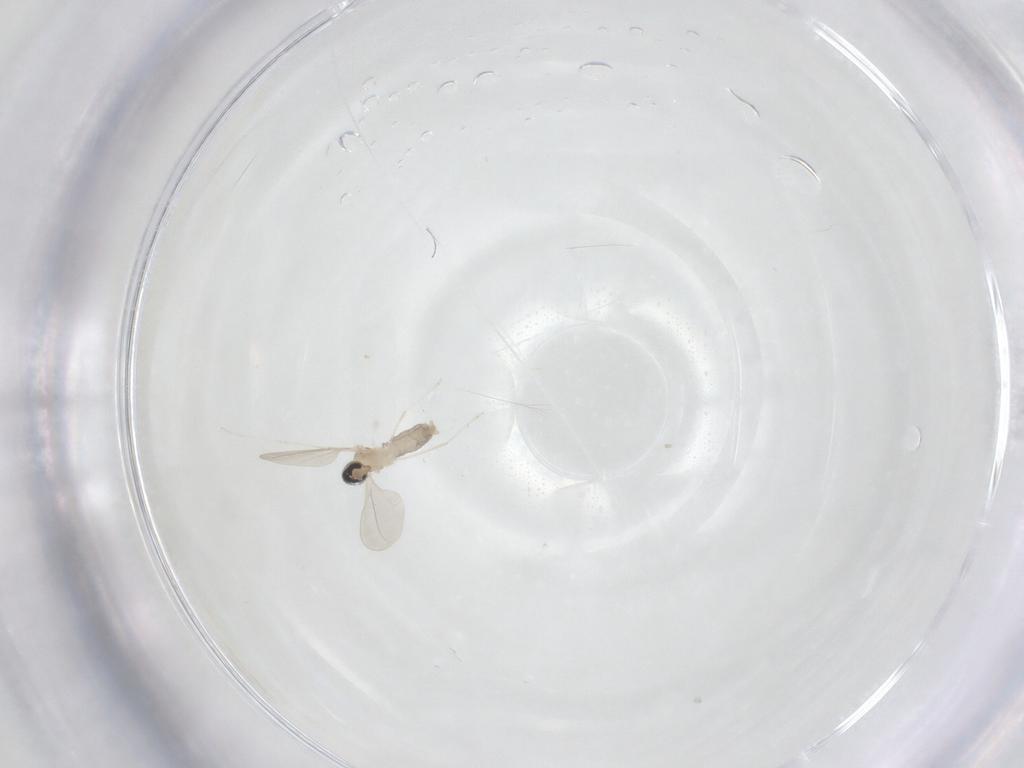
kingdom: Animalia
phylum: Arthropoda
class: Insecta
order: Diptera
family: Cecidomyiidae
